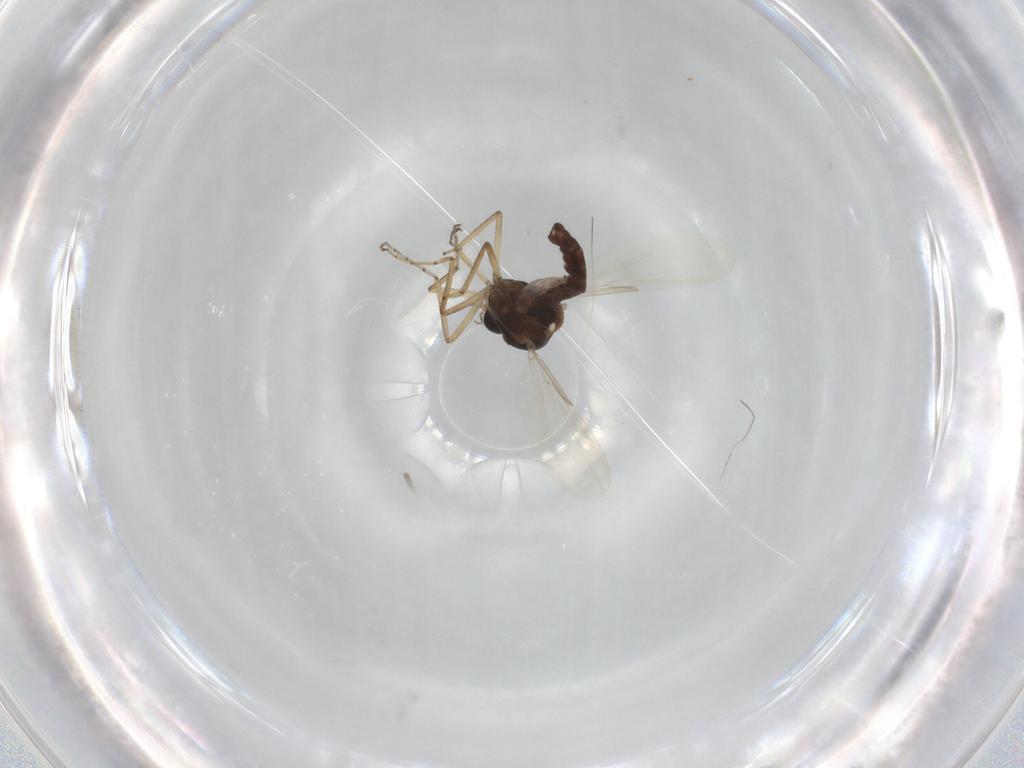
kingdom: Animalia
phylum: Arthropoda
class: Insecta
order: Diptera
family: Ceratopogonidae
